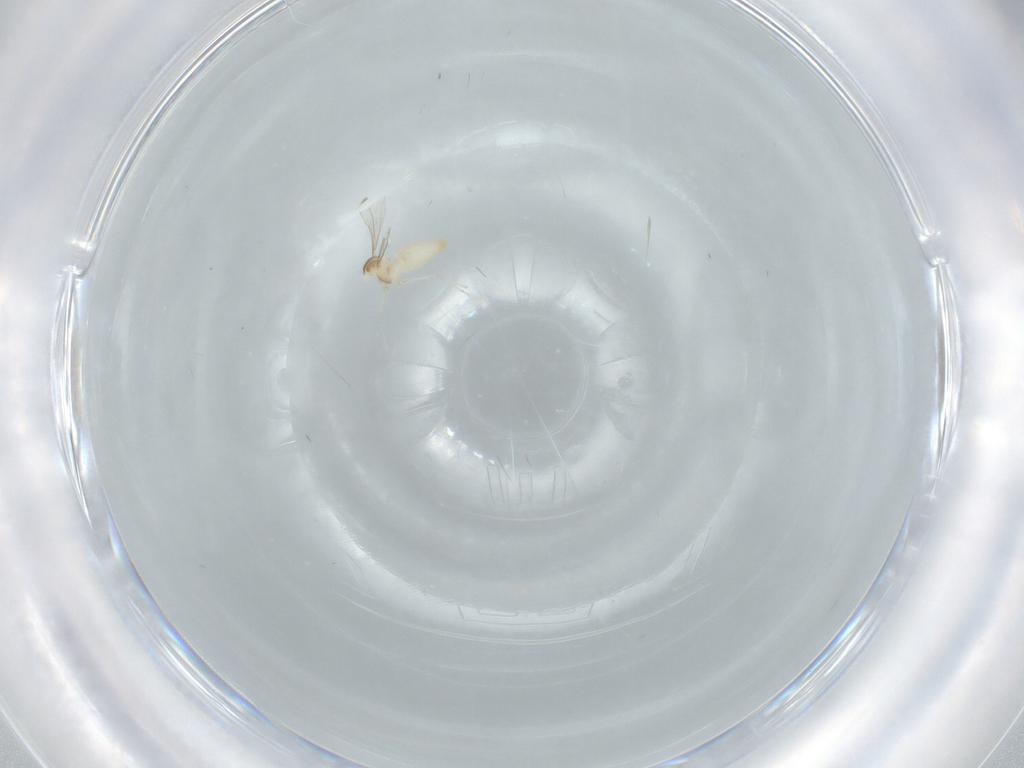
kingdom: Animalia
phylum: Arthropoda
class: Insecta
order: Diptera
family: Cecidomyiidae
